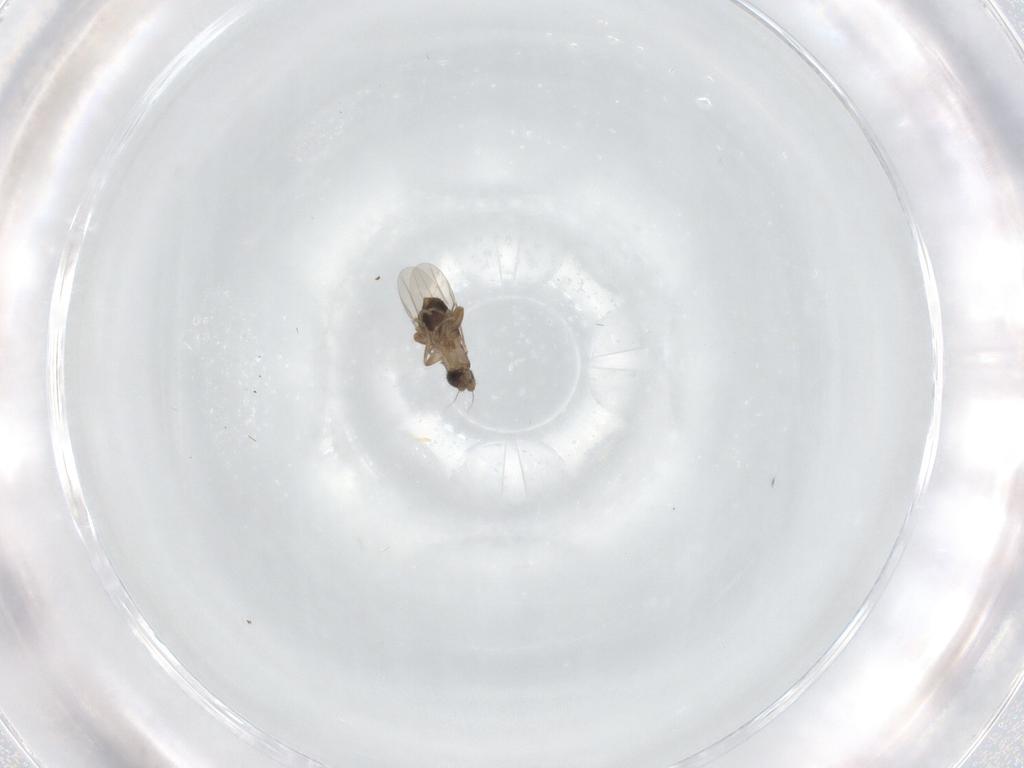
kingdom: Animalia
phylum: Arthropoda
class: Insecta
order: Diptera
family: Phoridae
